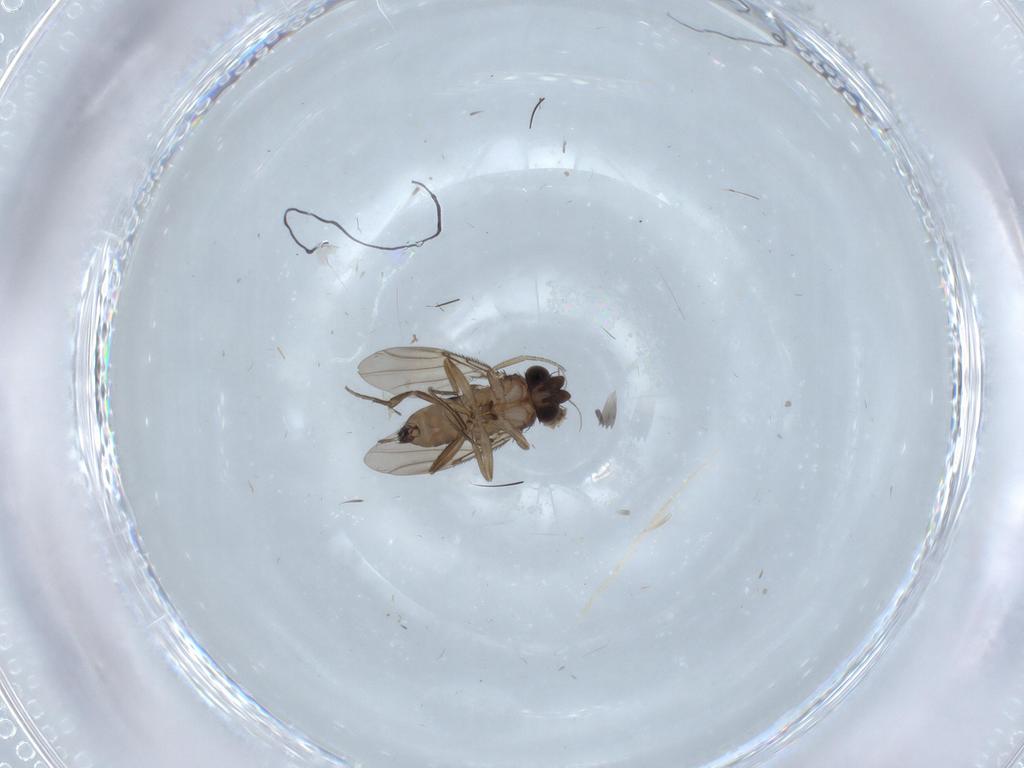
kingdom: Animalia
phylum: Arthropoda
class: Insecta
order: Diptera
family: Phoridae
